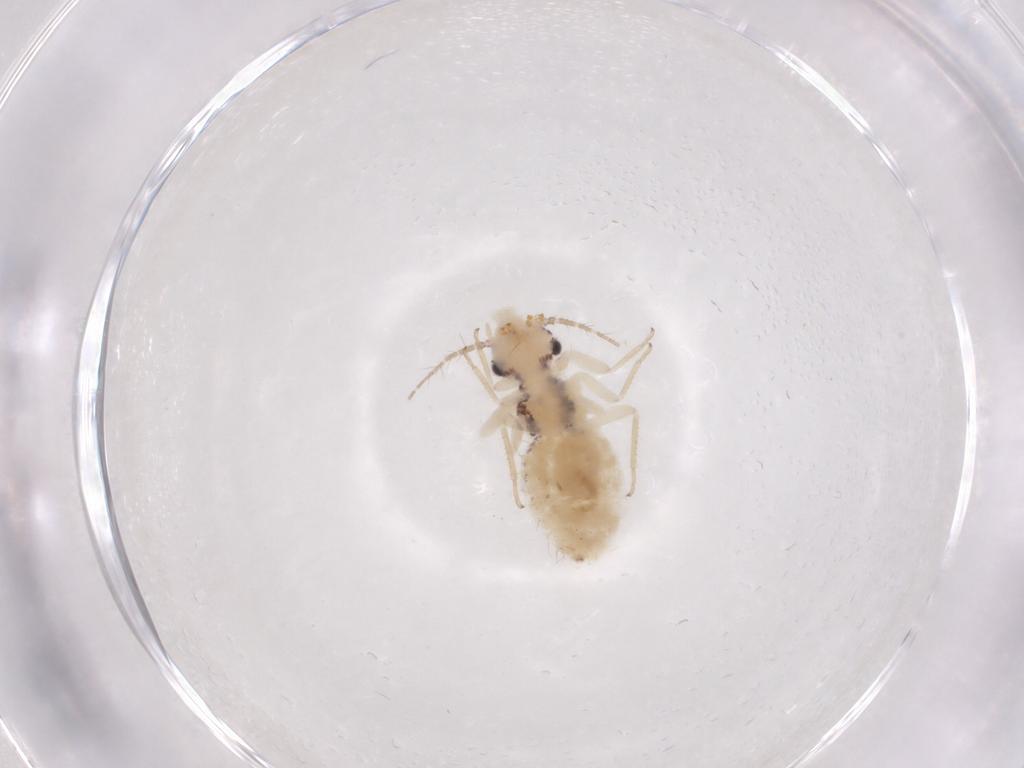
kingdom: Animalia
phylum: Arthropoda
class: Insecta
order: Psocodea
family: Pseudocaeciliidae
